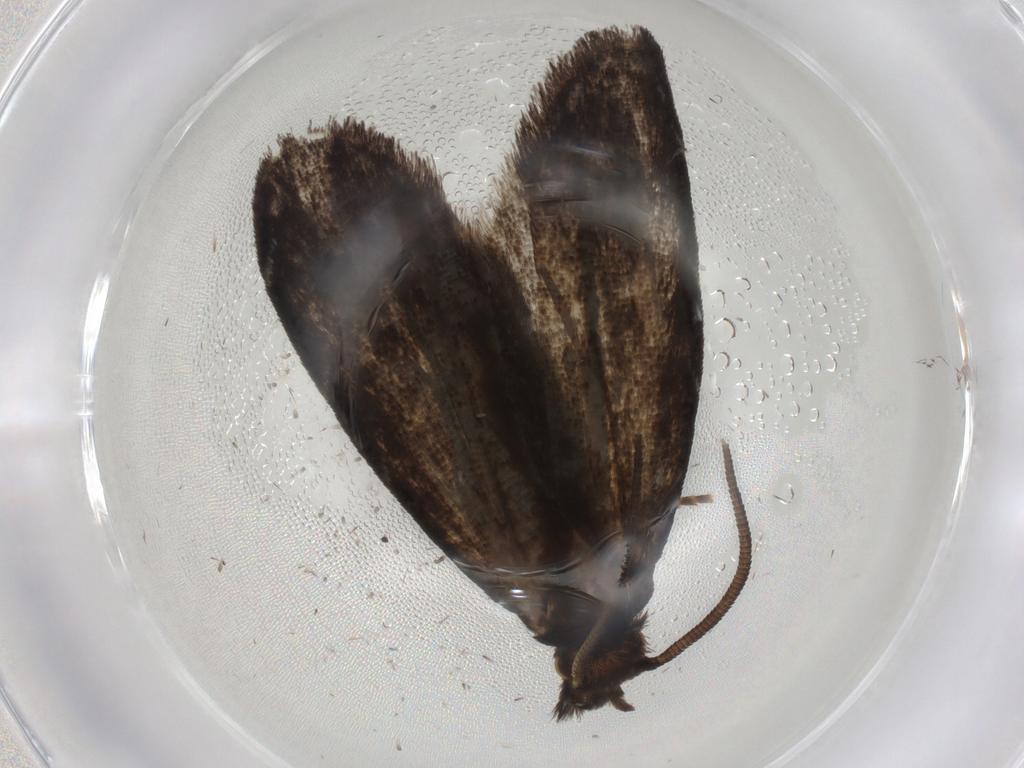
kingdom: Animalia
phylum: Arthropoda
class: Insecta
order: Lepidoptera
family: Dryadaulidae
